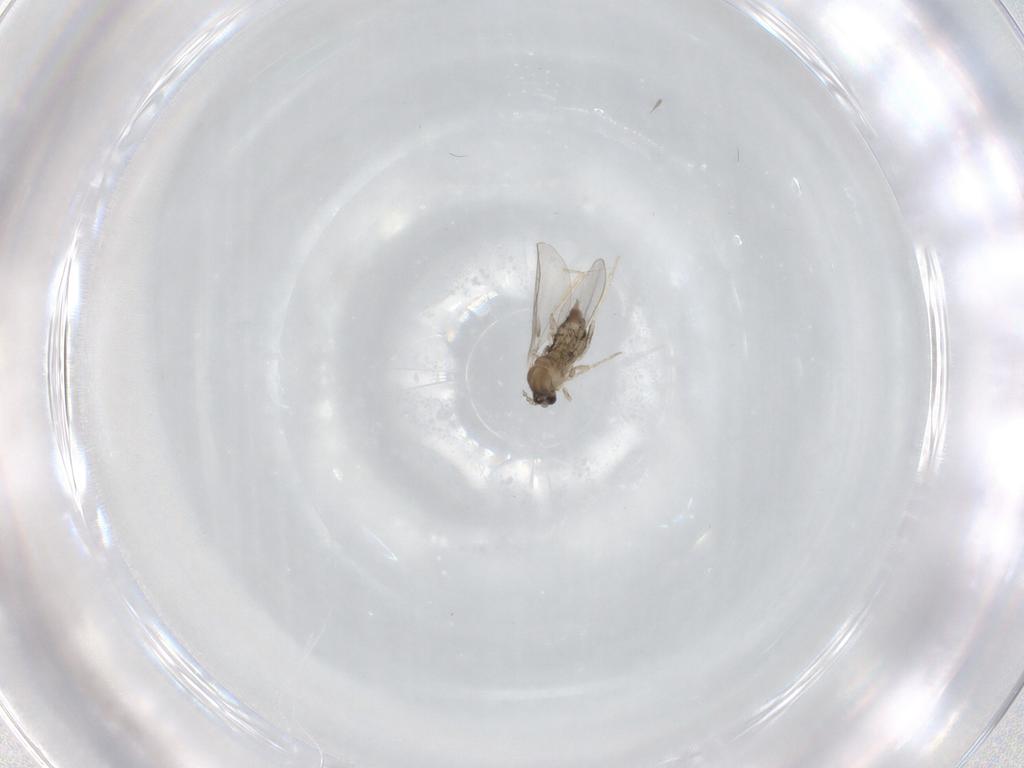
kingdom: Animalia
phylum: Arthropoda
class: Insecta
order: Diptera
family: Cecidomyiidae
